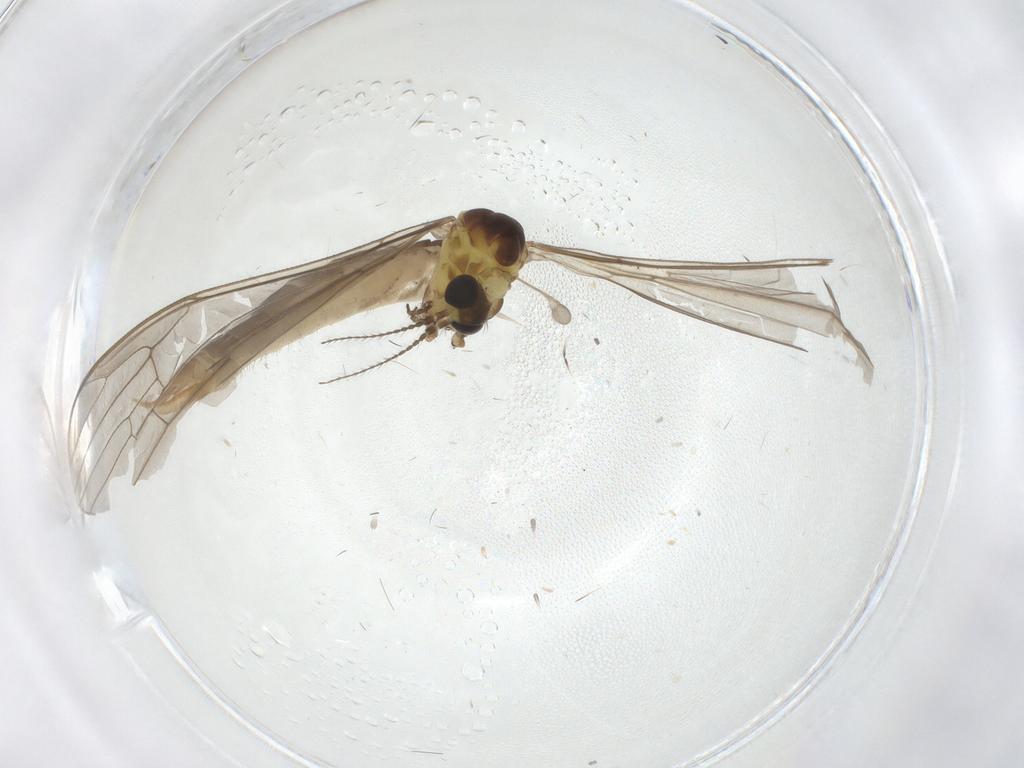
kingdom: Animalia
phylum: Arthropoda
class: Insecta
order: Diptera
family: Limoniidae
